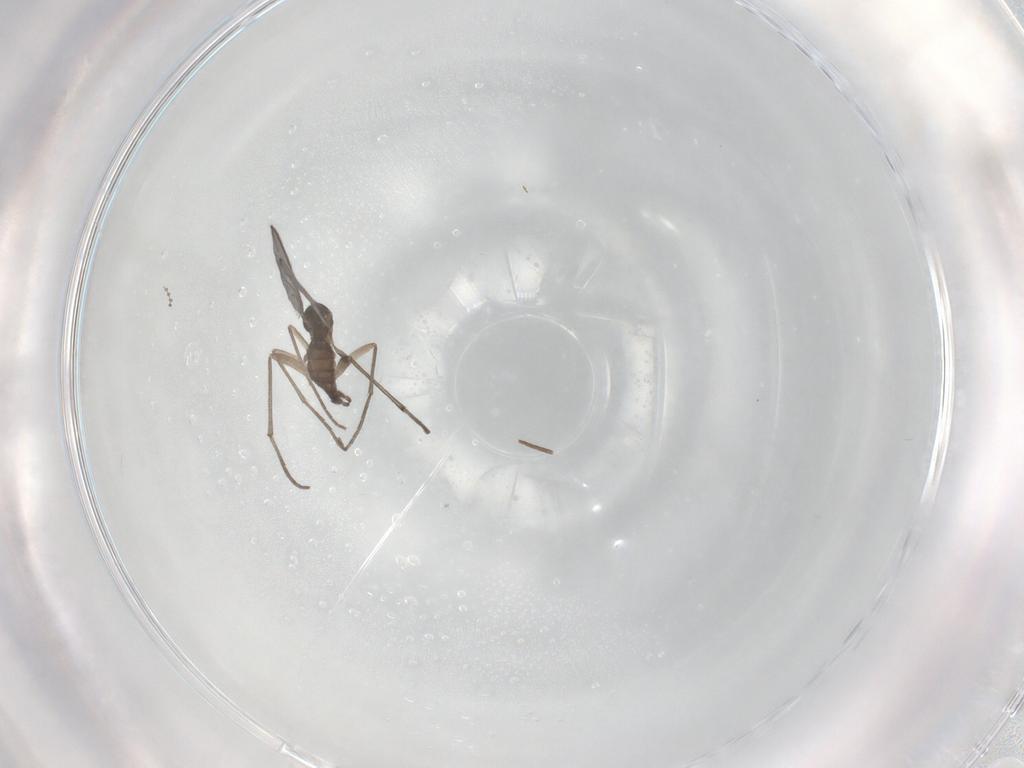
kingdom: Animalia
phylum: Arthropoda
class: Insecta
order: Diptera
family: Sciaridae
